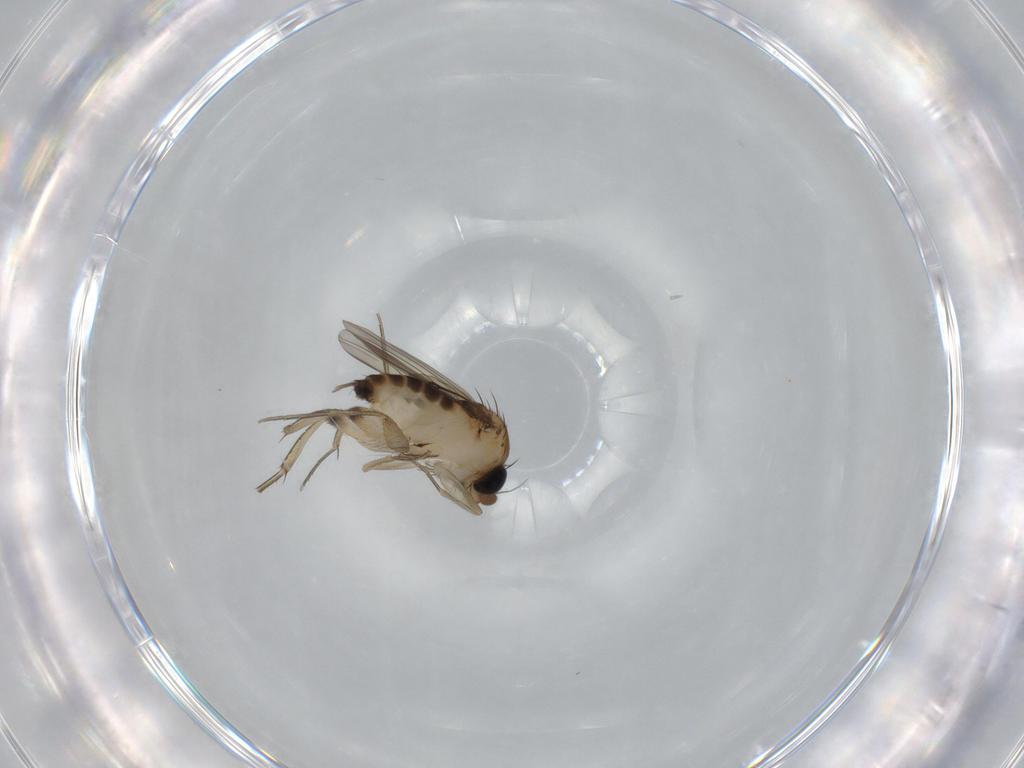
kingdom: Animalia
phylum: Arthropoda
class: Insecta
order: Diptera
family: Phoridae
